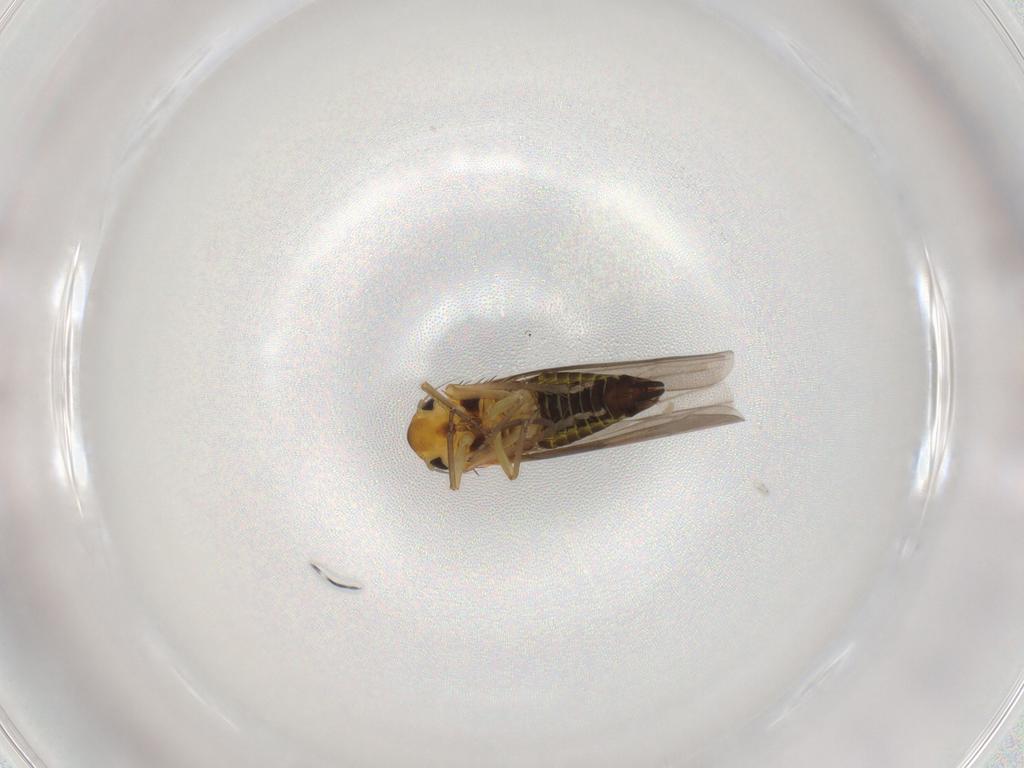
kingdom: Animalia
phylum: Arthropoda
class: Insecta
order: Hemiptera
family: Cicadellidae
